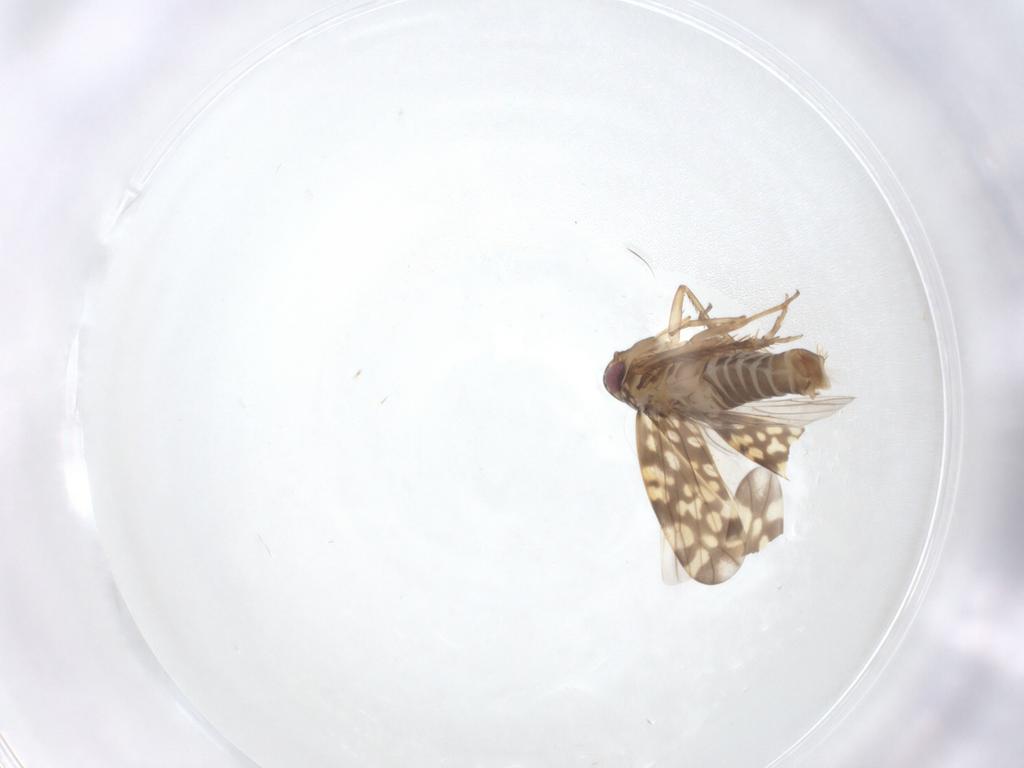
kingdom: Animalia
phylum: Arthropoda
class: Insecta
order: Hemiptera
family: Cicadellidae
